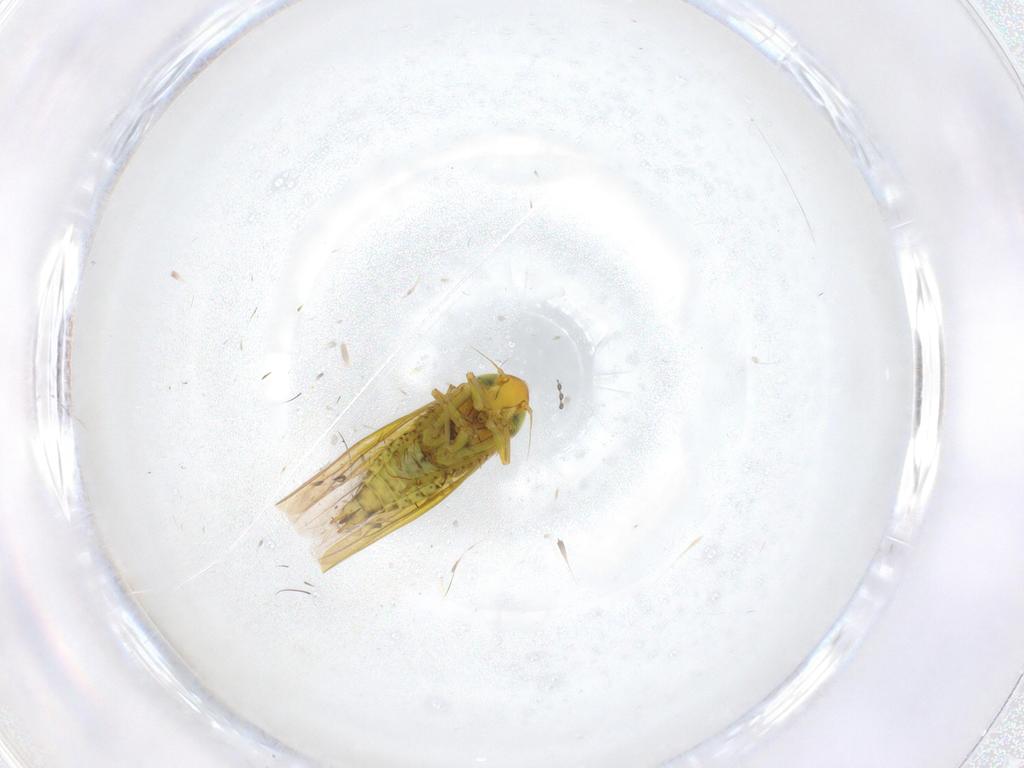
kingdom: Animalia
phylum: Arthropoda
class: Insecta
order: Hemiptera
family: Cicadellidae
